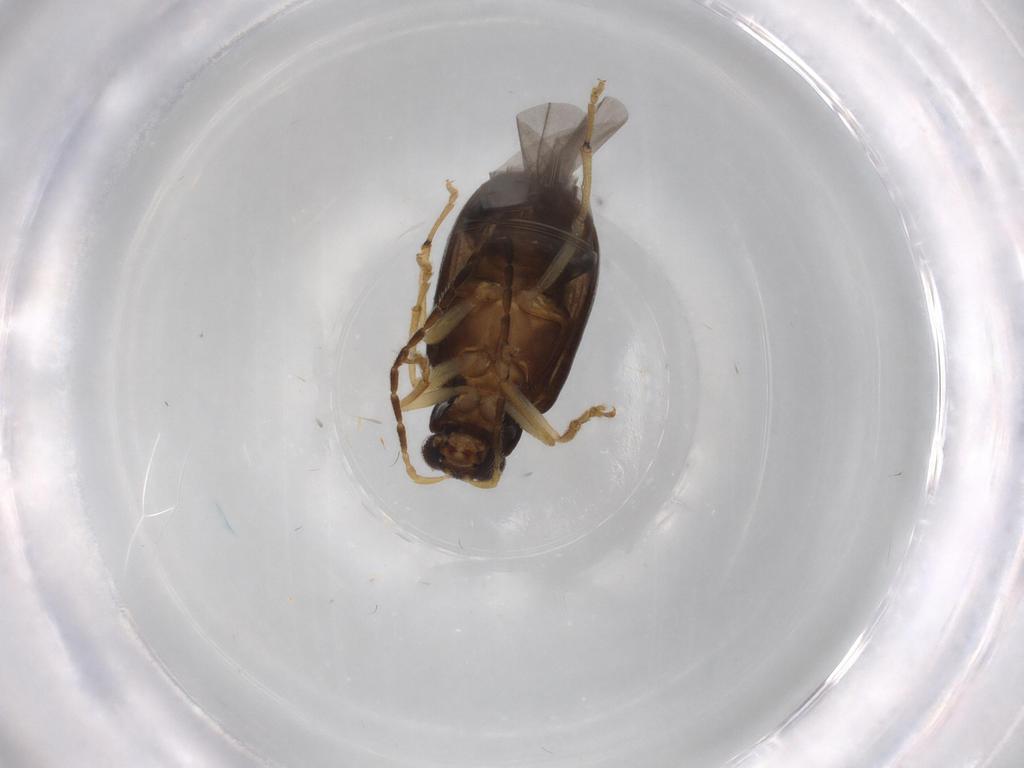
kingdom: Animalia
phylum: Arthropoda
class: Insecta
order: Coleoptera
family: Chrysomelidae
